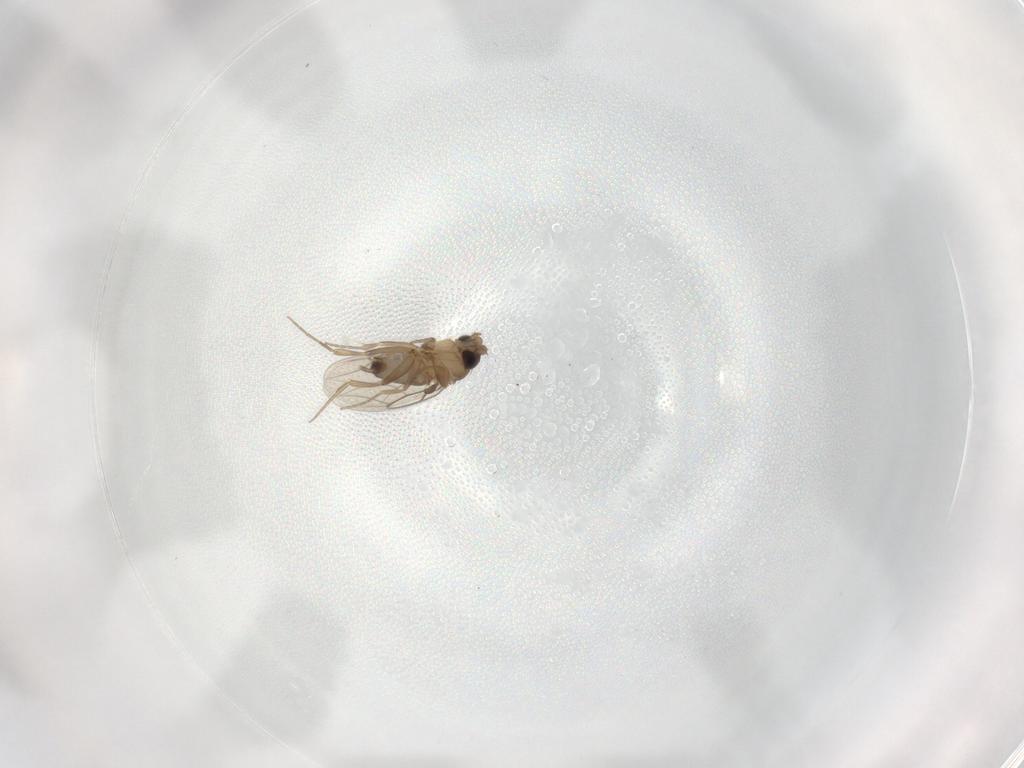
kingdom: Animalia
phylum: Arthropoda
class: Insecta
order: Diptera
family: Phoridae
